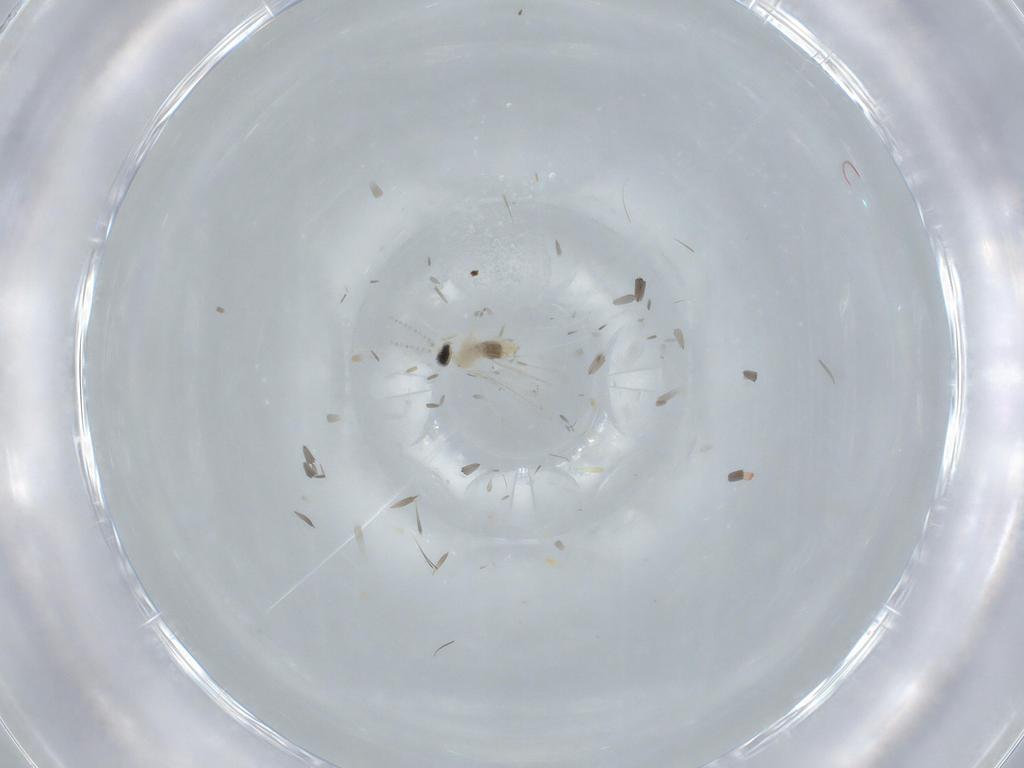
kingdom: Animalia
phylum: Arthropoda
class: Insecta
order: Diptera
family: Cecidomyiidae
